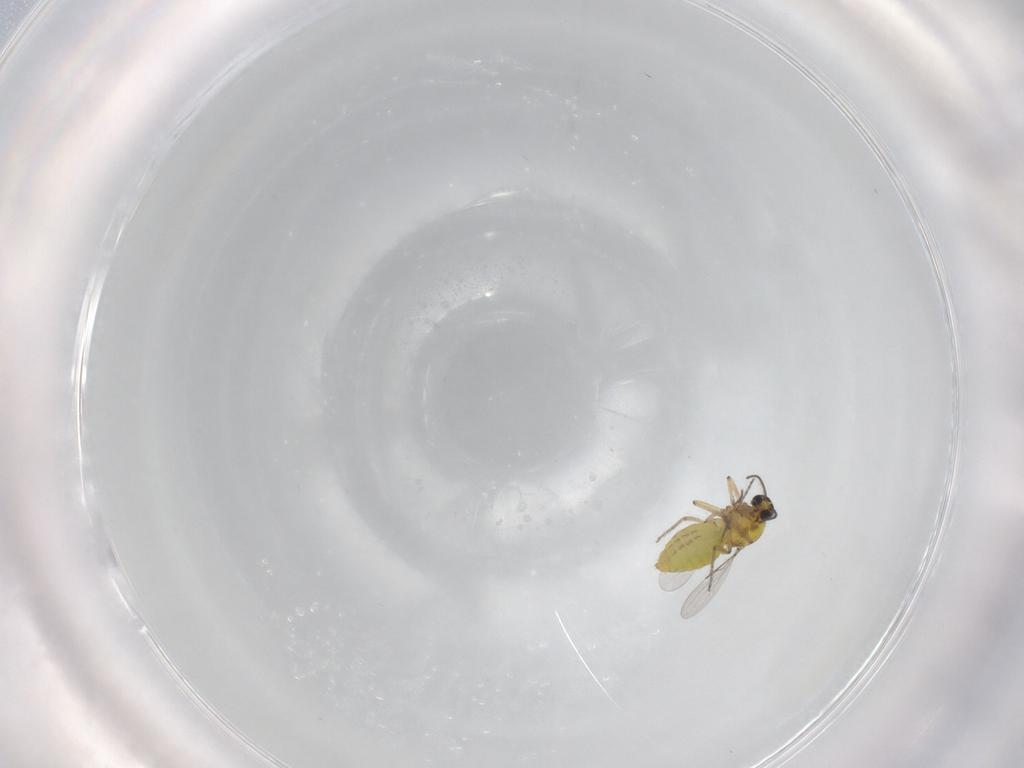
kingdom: Animalia
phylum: Arthropoda
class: Insecta
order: Diptera
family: Ceratopogonidae
